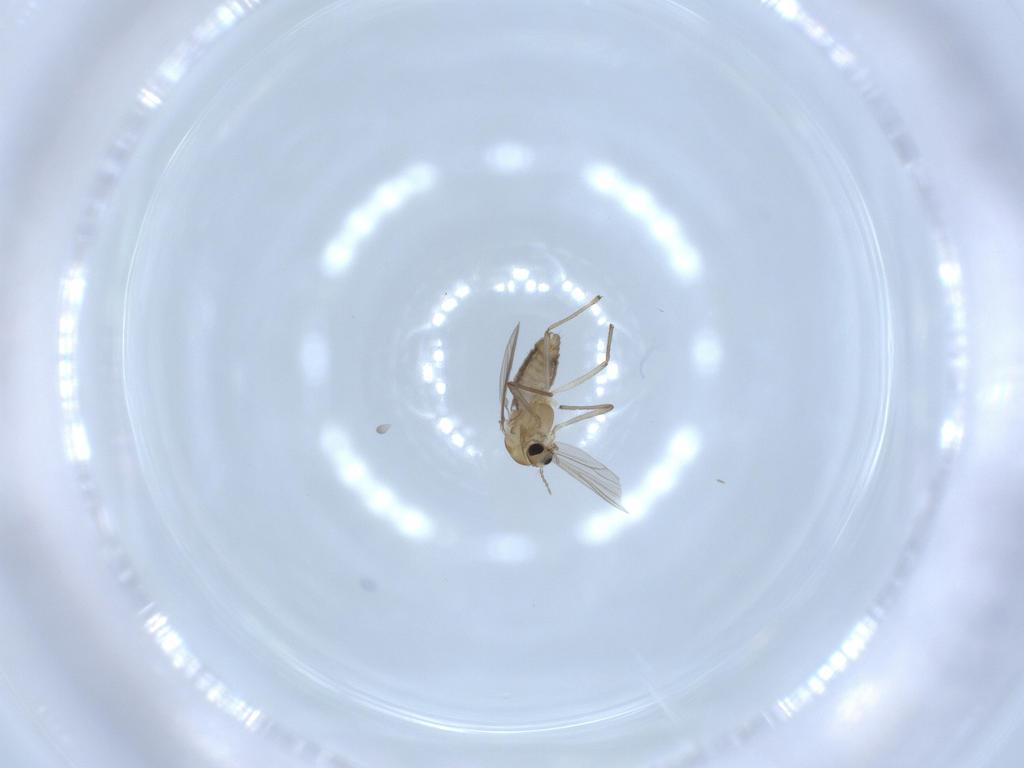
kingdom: Animalia
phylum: Arthropoda
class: Insecta
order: Diptera
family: Chironomidae
